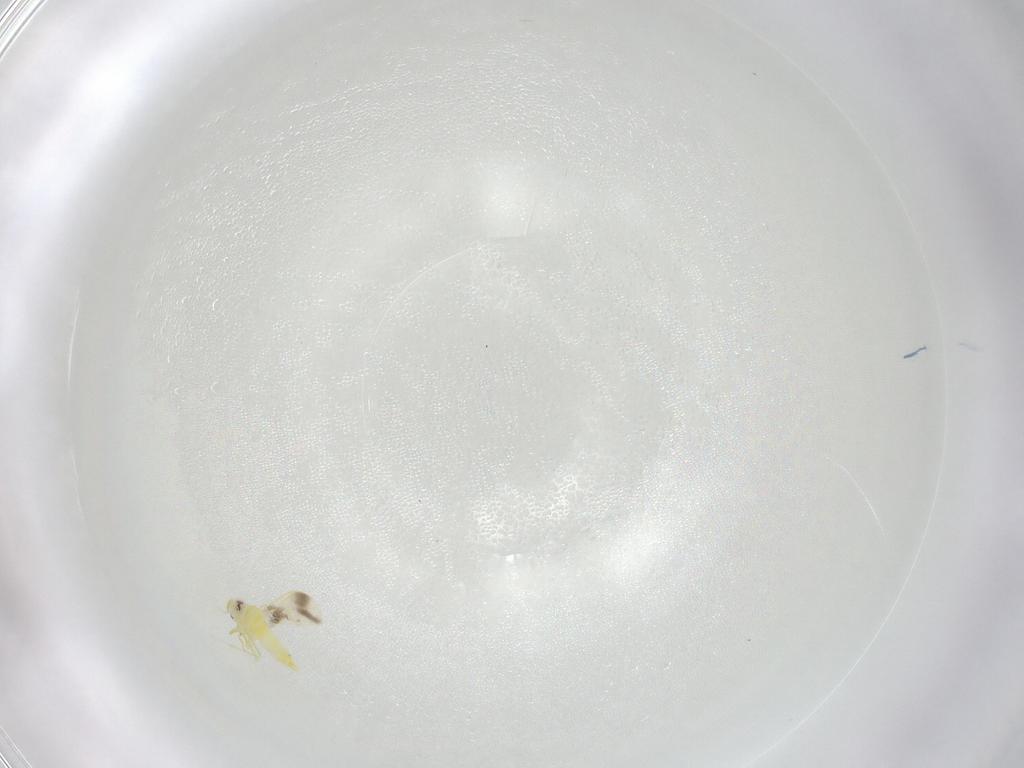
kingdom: Animalia
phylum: Arthropoda
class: Insecta
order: Hemiptera
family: Aleyrodidae
